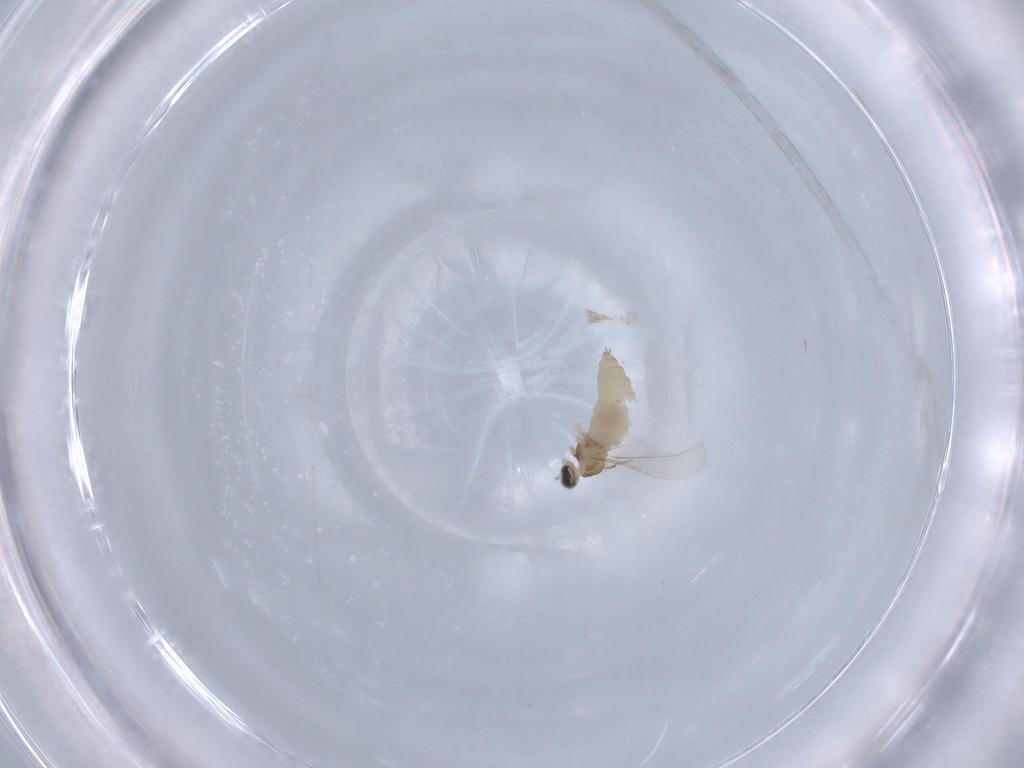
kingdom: Animalia
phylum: Arthropoda
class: Insecta
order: Diptera
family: Cecidomyiidae
